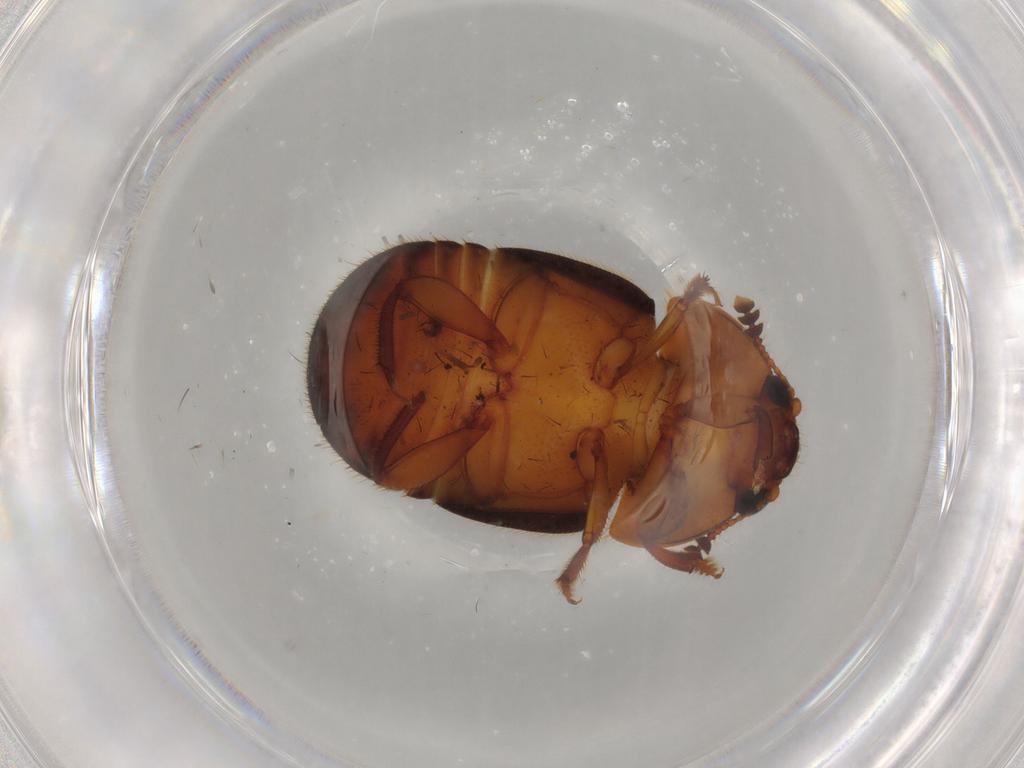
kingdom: Animalia
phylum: Arthropoda
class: Insecta
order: Coleoptera
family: Nitidulidae
